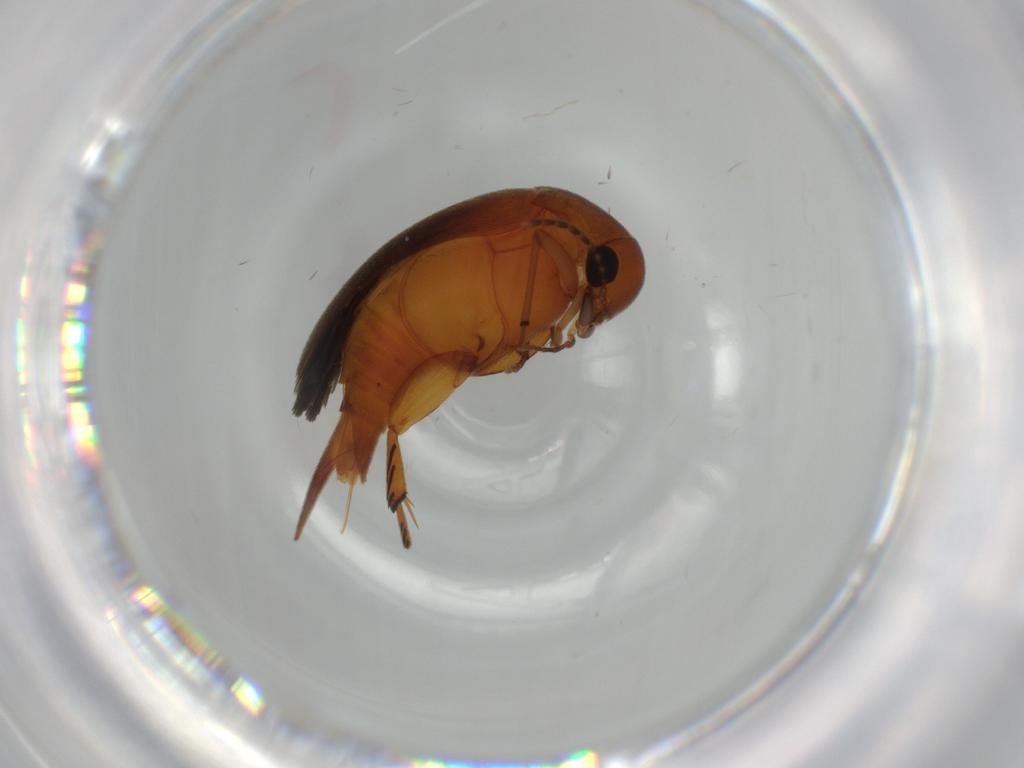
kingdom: Animalia
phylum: Arthropoda
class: Insecta
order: Coleoptera
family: Mordellidae
